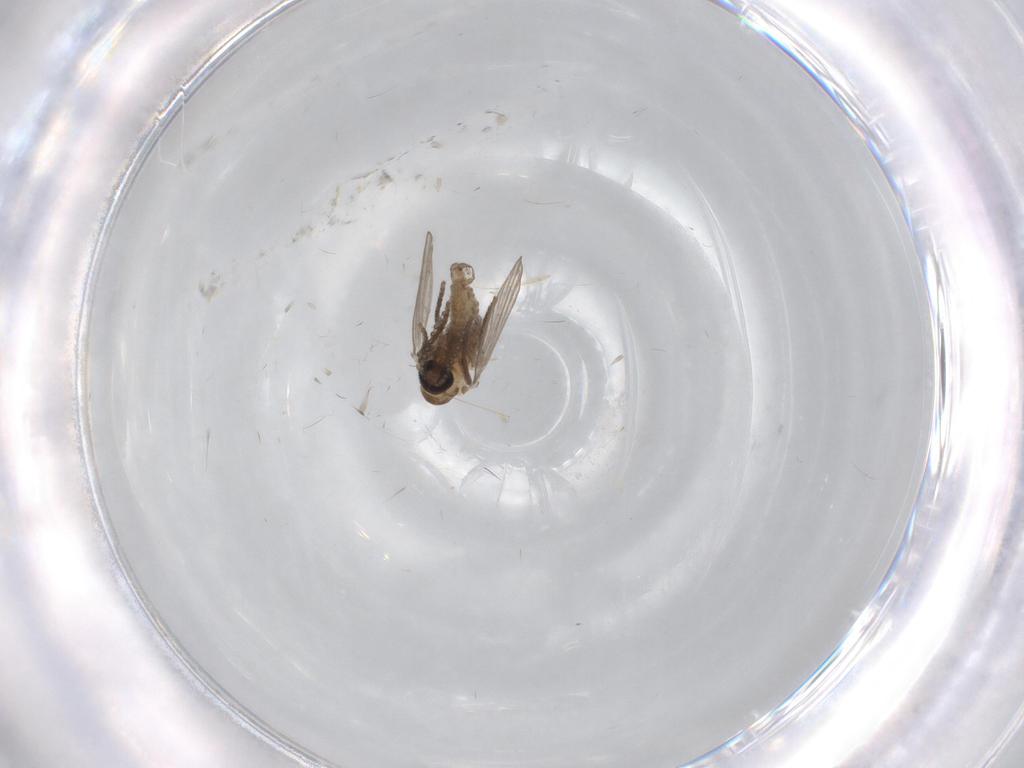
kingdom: Animalia
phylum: Arthropoda
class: Insecta
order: Diptera
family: Psychodidae
